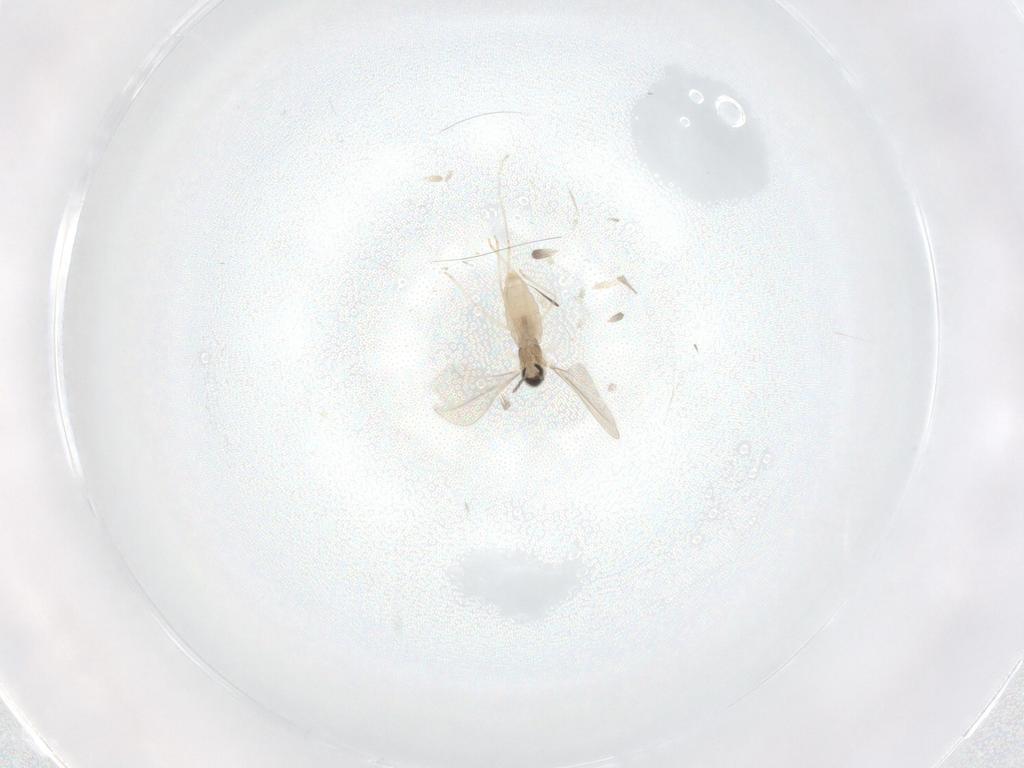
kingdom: Animalia
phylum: Arthropoda
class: Insecta
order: Diptera
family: Cecidomyiidae
